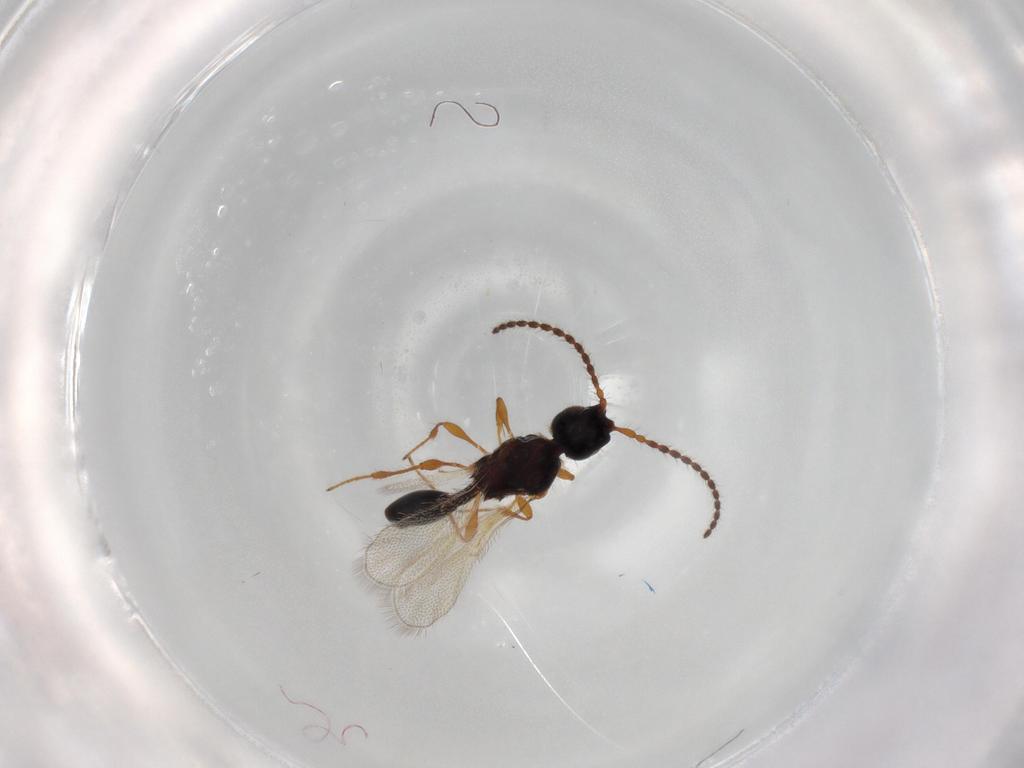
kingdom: Animalia
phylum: Arthropoda
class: Insecta
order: Hymenoptera
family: Diapriidae
